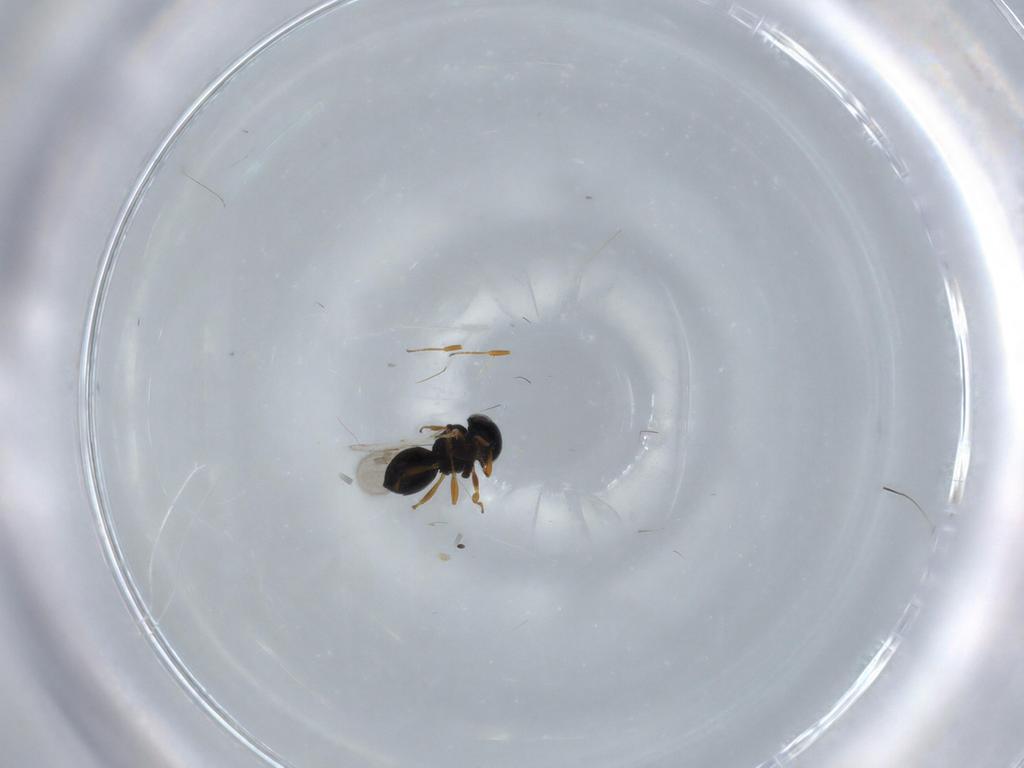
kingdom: Animalia
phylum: Arthropoda
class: Insecta
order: Hymenoptera
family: Scelionidae
